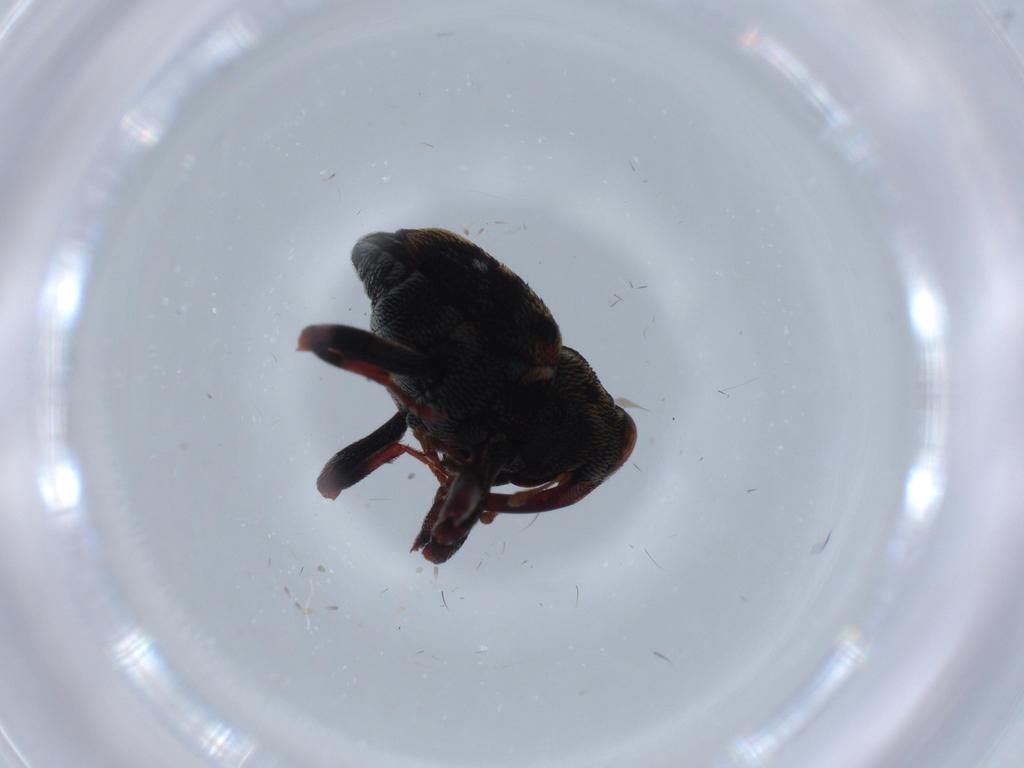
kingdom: Animalia
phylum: Arthropoda
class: Insecta
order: Coleoptera
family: Curculionidae
